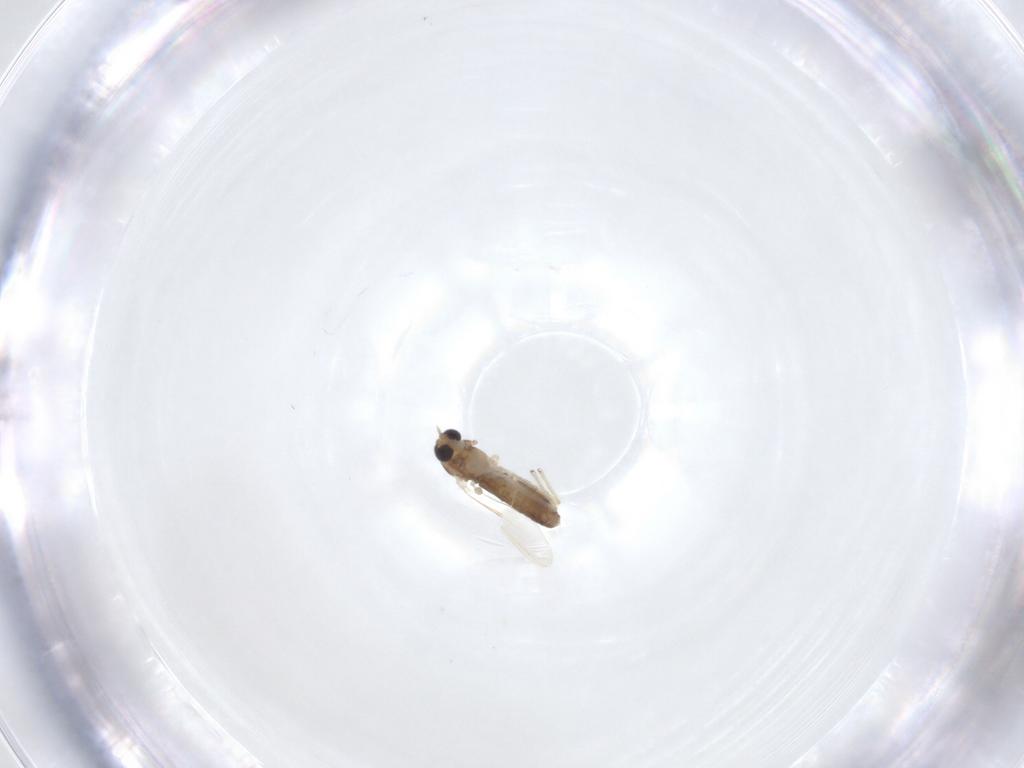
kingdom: Animalia
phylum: Arthropoda
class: Insecta
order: Diptera
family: Chironomidae
